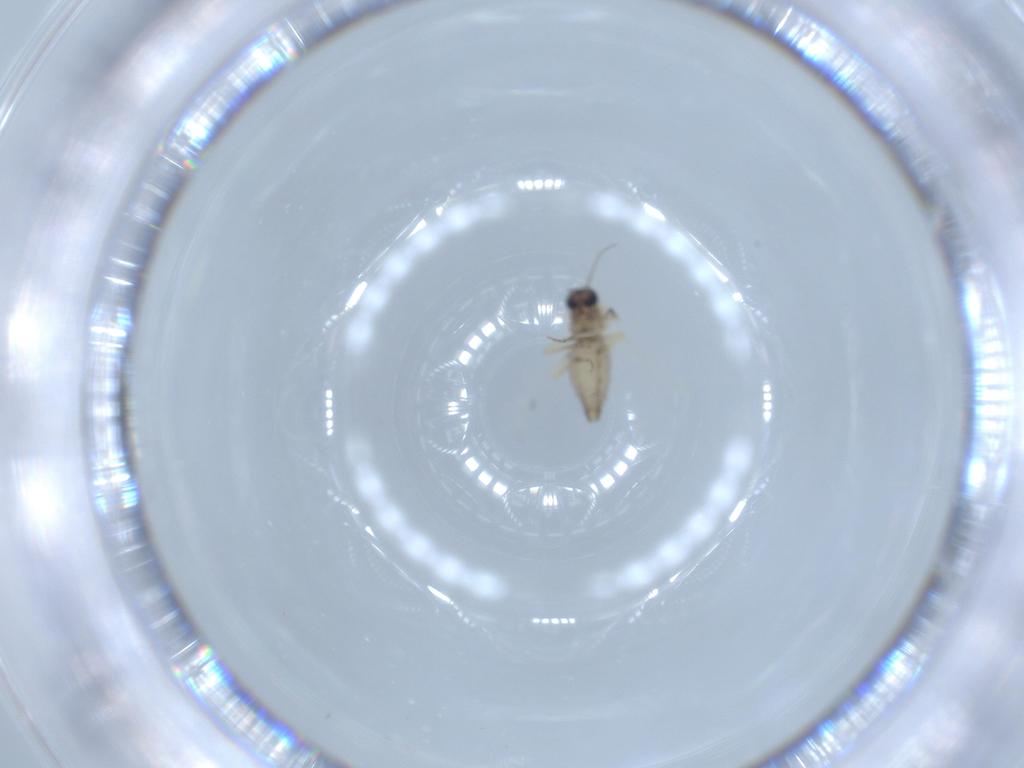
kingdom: Animalia
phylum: Arthropoda
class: Insecta
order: Diptera
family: Ceratopogonidae
